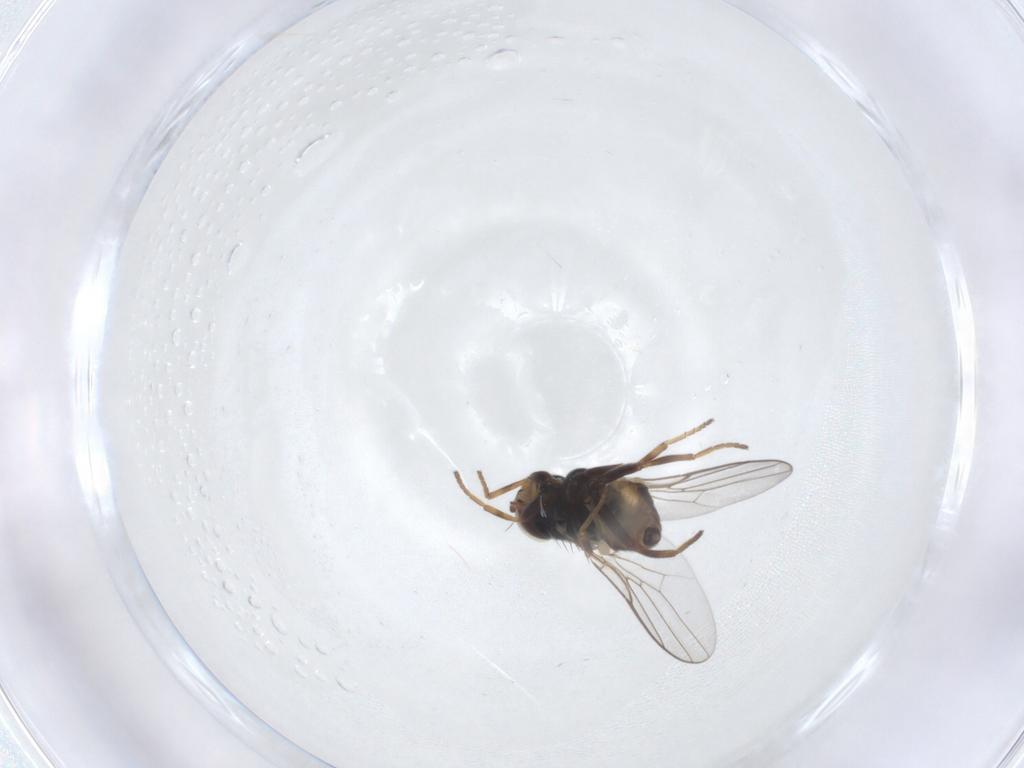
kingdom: Animalia
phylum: Arthropoda
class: Insecta
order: Diptera
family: Chloropidae
